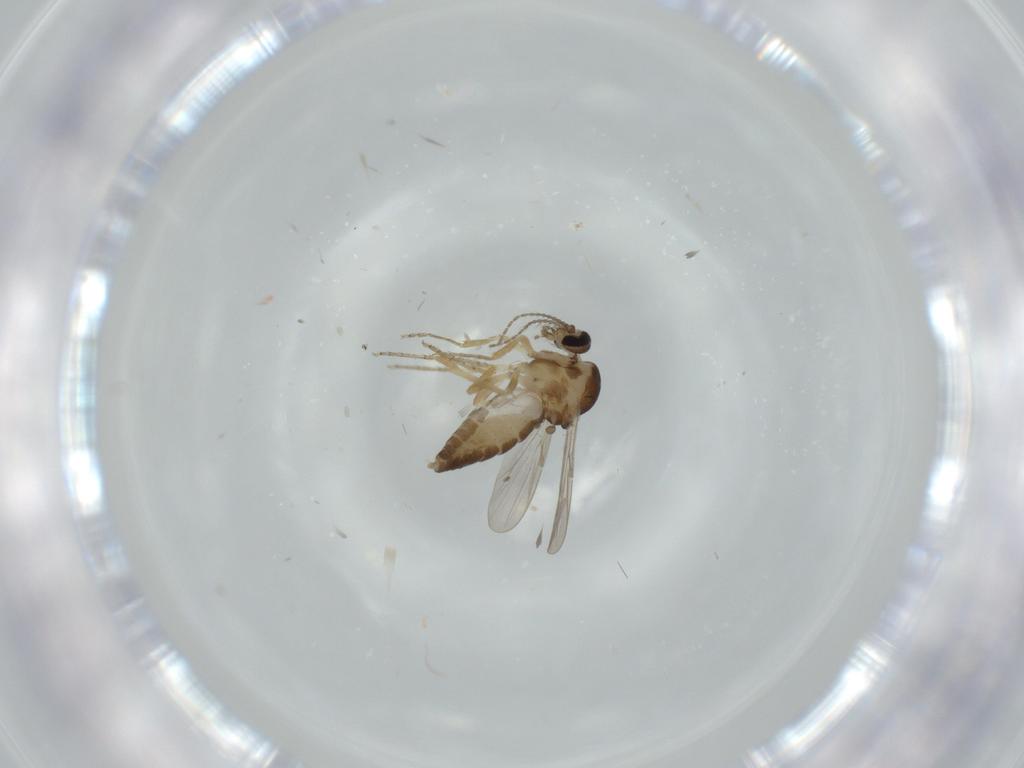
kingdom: Animalia
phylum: Arthropoda
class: Insecta
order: Diptera
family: Ceratopogonidae
